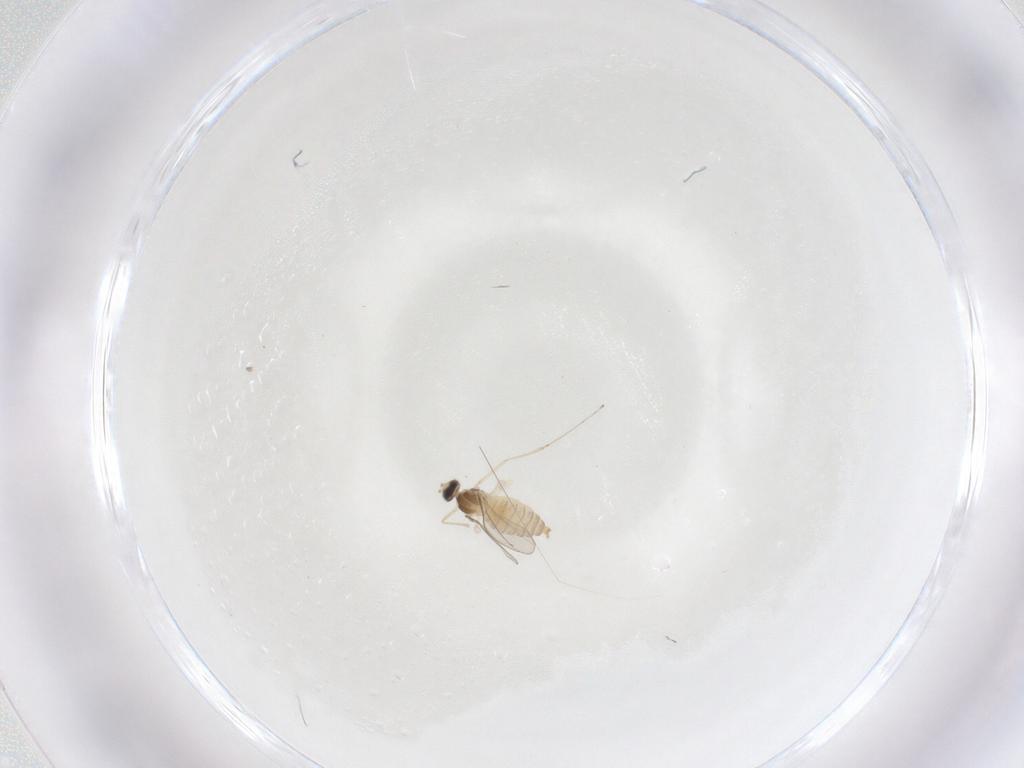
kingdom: Animalia
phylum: Arthropoda
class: Insecta
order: Diptera
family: Cecidomyiidae
